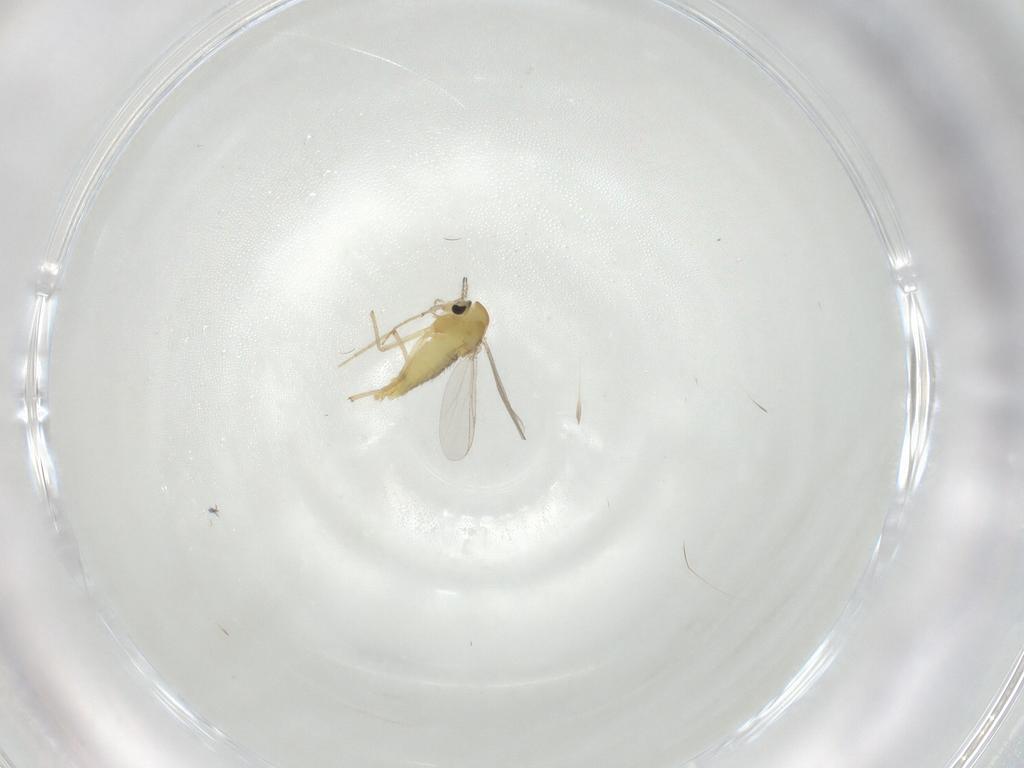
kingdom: Animalia
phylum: Arthropoda
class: Insecta
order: Diptera
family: Chironomidae
